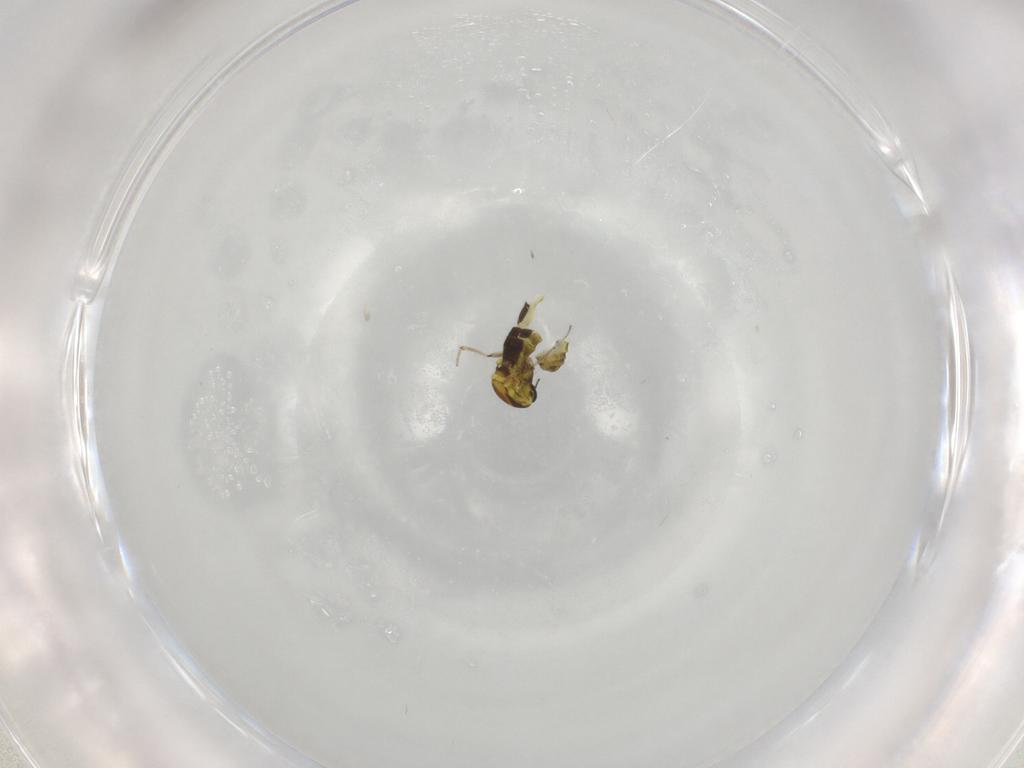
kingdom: Animalia
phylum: Arthropoda
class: Insecta
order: Diptera
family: Ceratopogonidae
